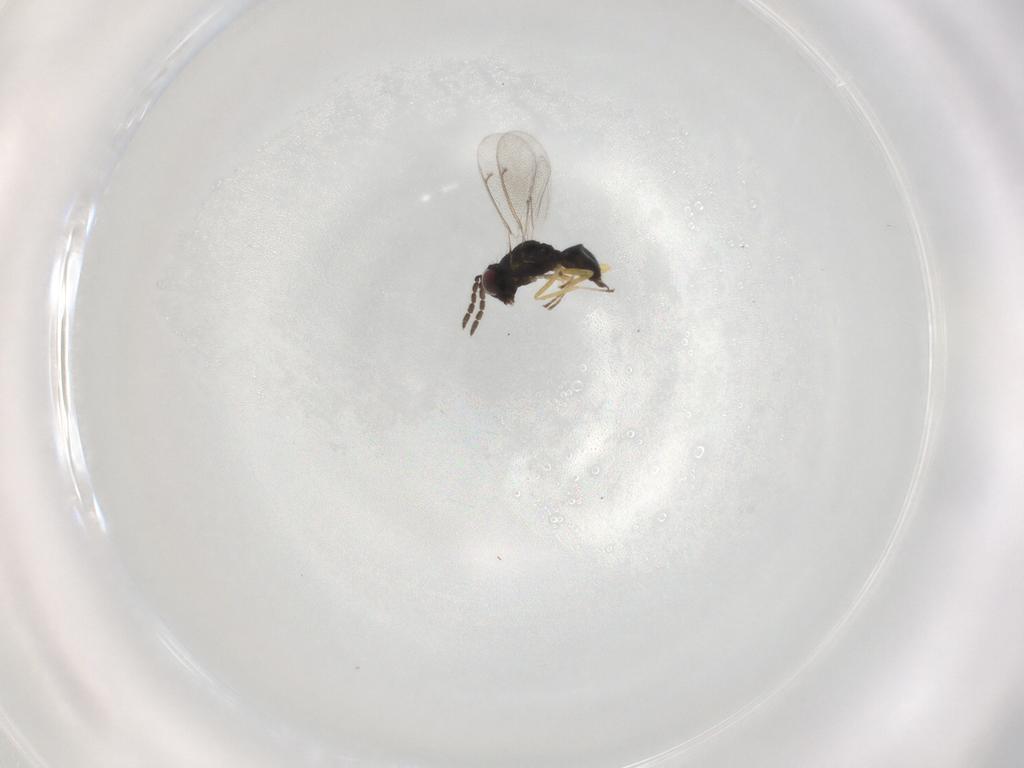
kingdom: Animalia
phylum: Arthropoda
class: Insecta
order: Hymenoptera
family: Eulophidae
